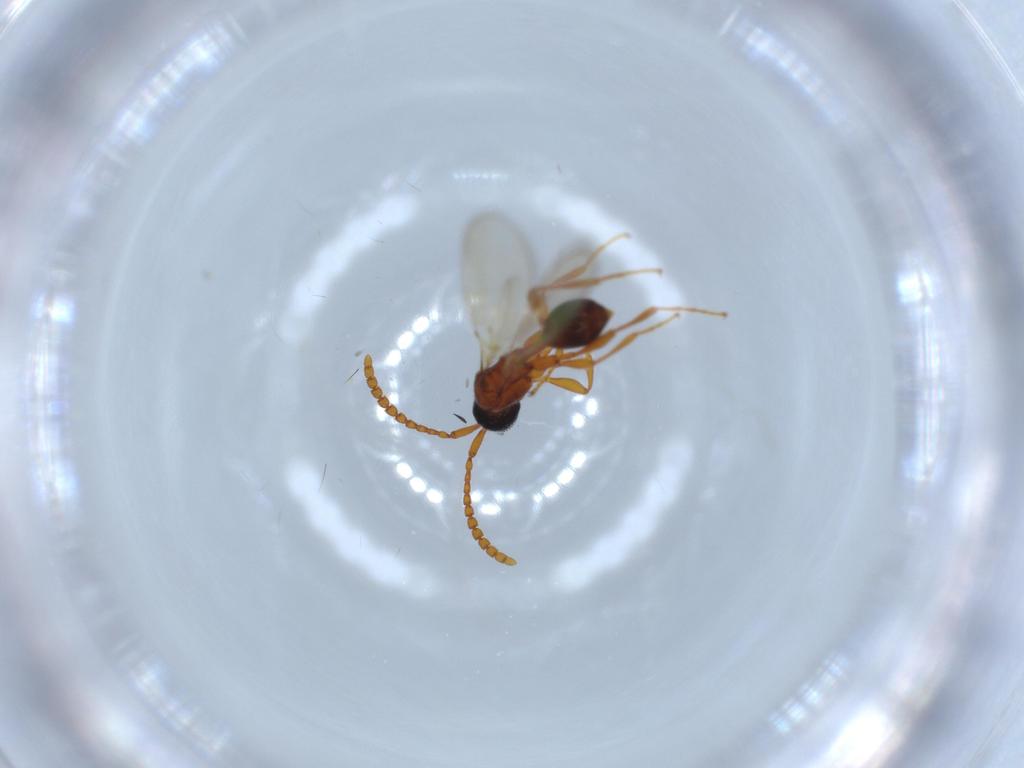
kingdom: Animalia
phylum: Arthropoda
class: Insecta
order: Hymenoptera
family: Diapriidae
